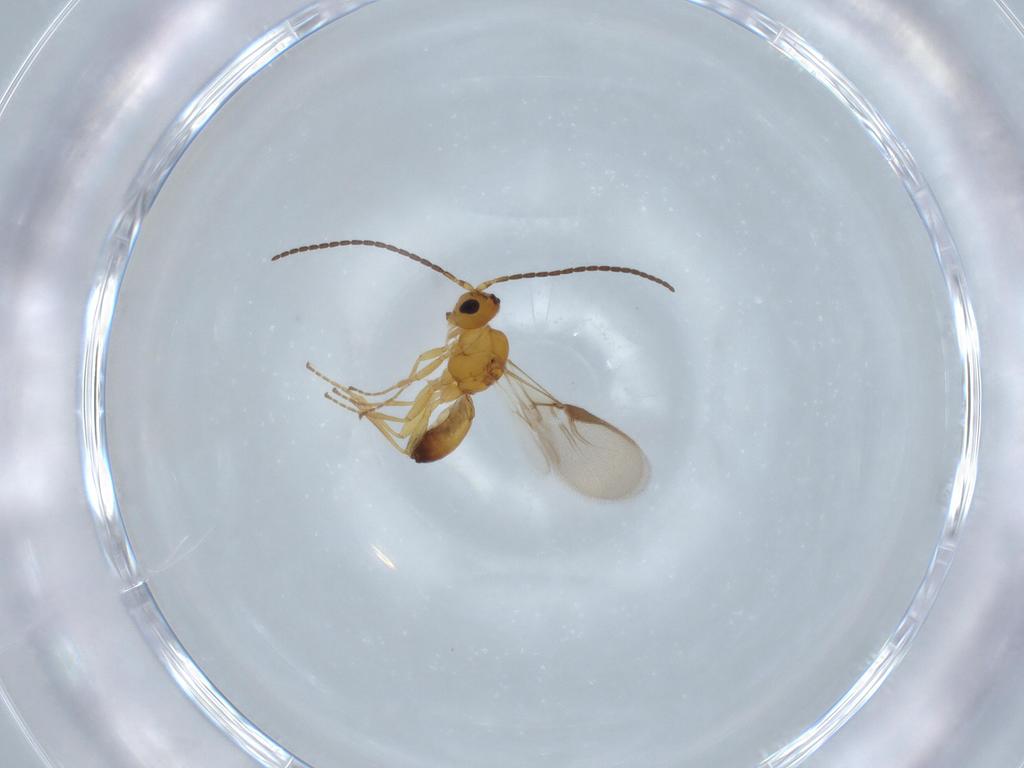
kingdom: Animalia
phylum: Arthropoda
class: Insecta
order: Hymenoptera
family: Braconidae
